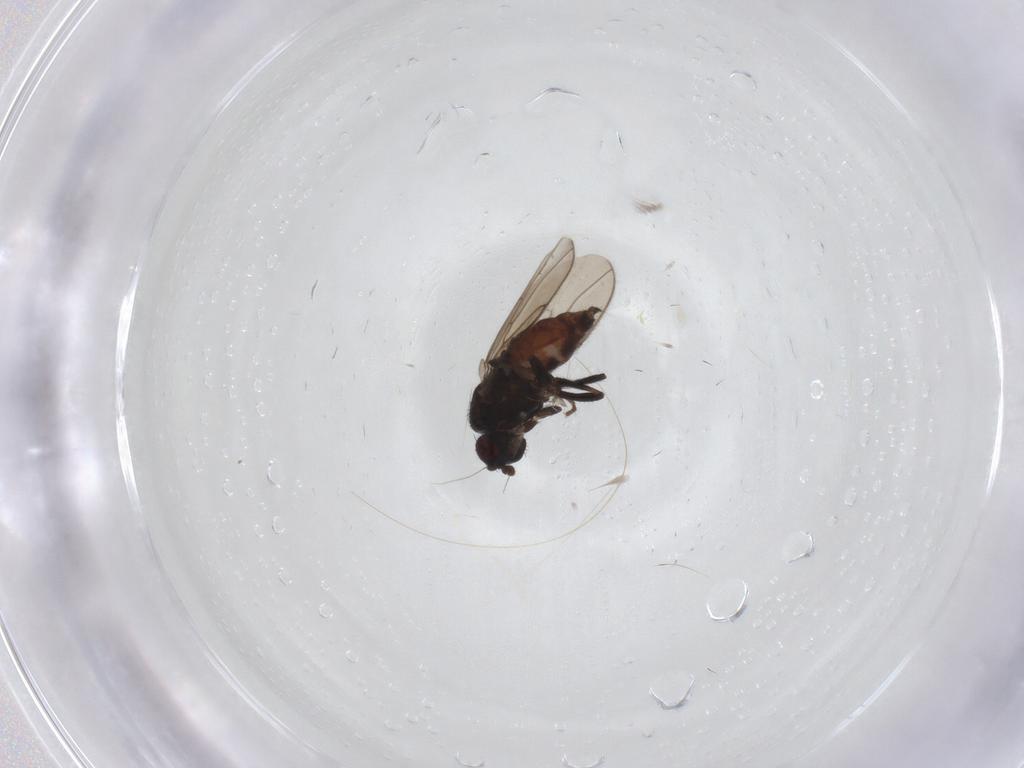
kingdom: Animalia
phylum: Arthropoda
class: Insecta
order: Diptera
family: Sphaeroceridae
